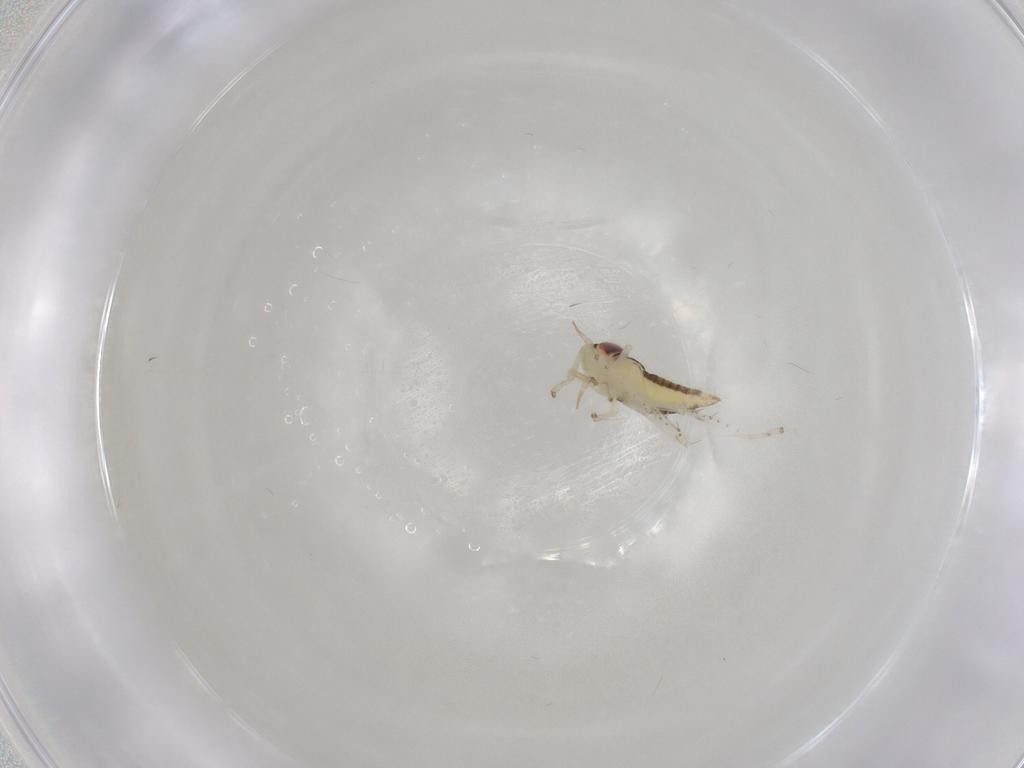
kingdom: Animalia
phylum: Arthropoda
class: Insecta
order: Hemiptera
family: Cicadellidae
